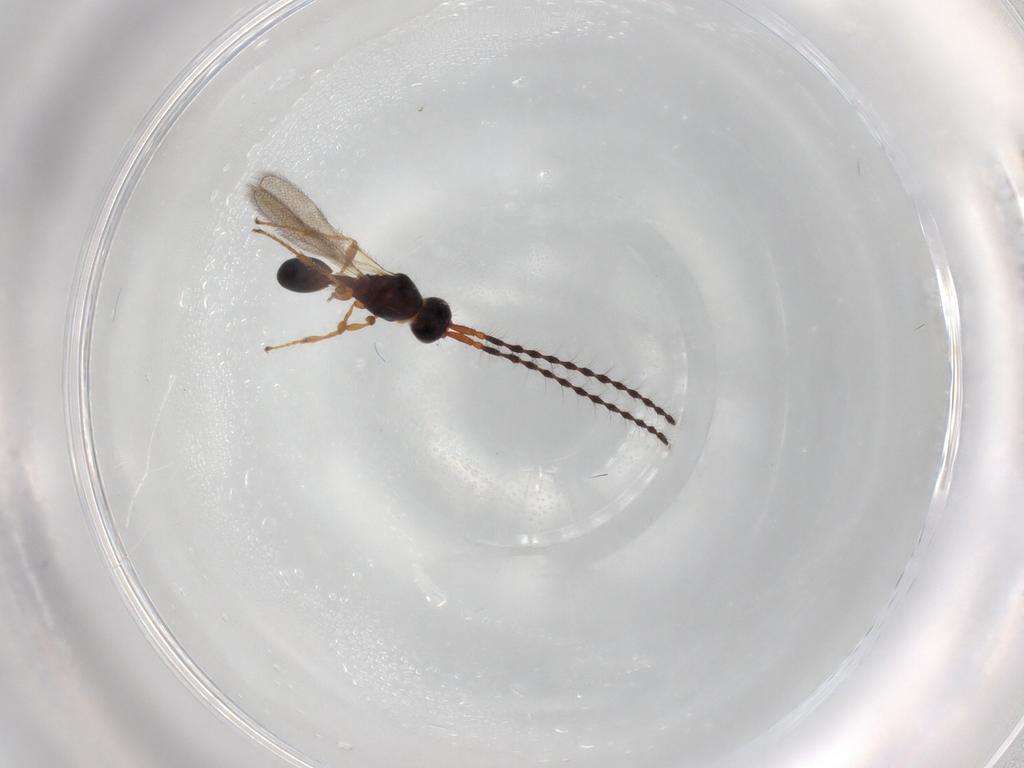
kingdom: Animalia
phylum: Arthropoda
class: Insecta
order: Hymenoptera
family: Diapriidae
